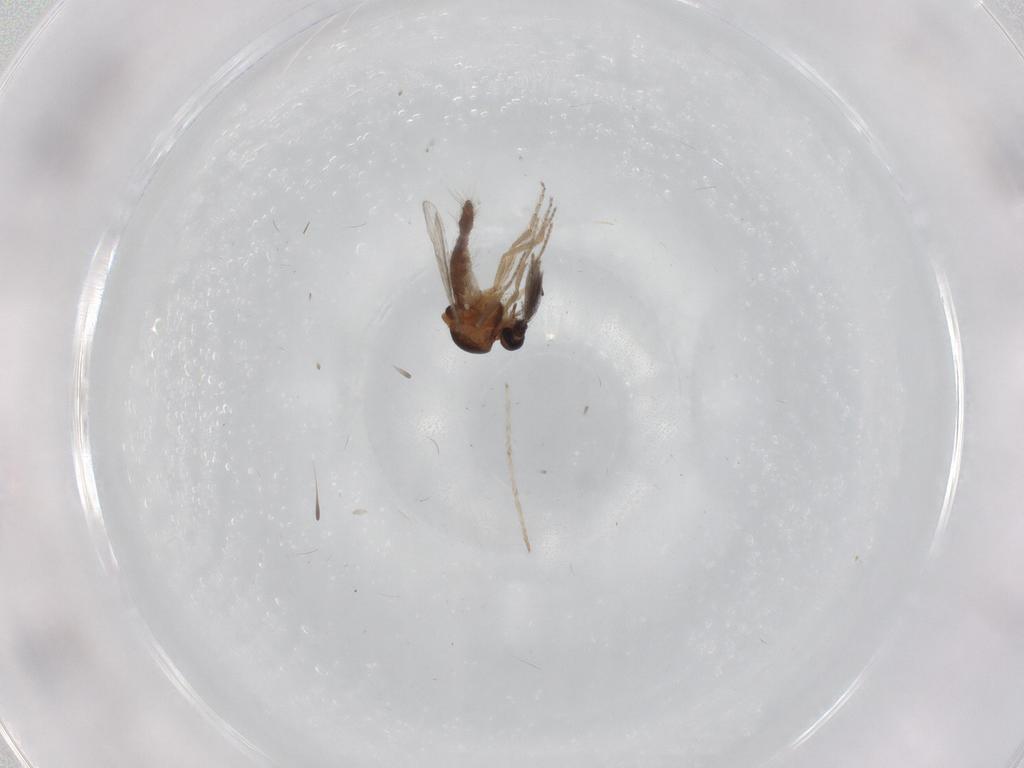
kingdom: Animalia
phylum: Arthropoda
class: Insecta
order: Diptera
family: Ceratopogonidae
